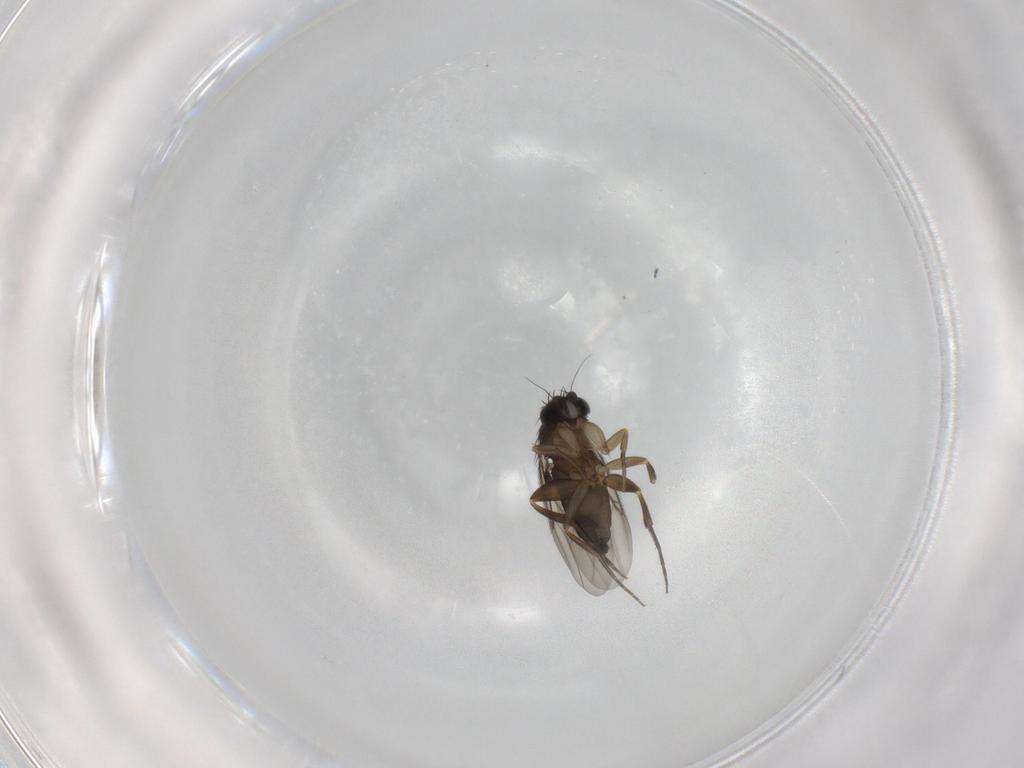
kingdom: Animalia
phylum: Arthropoda
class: Insecta
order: Diptera
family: Phoridae
